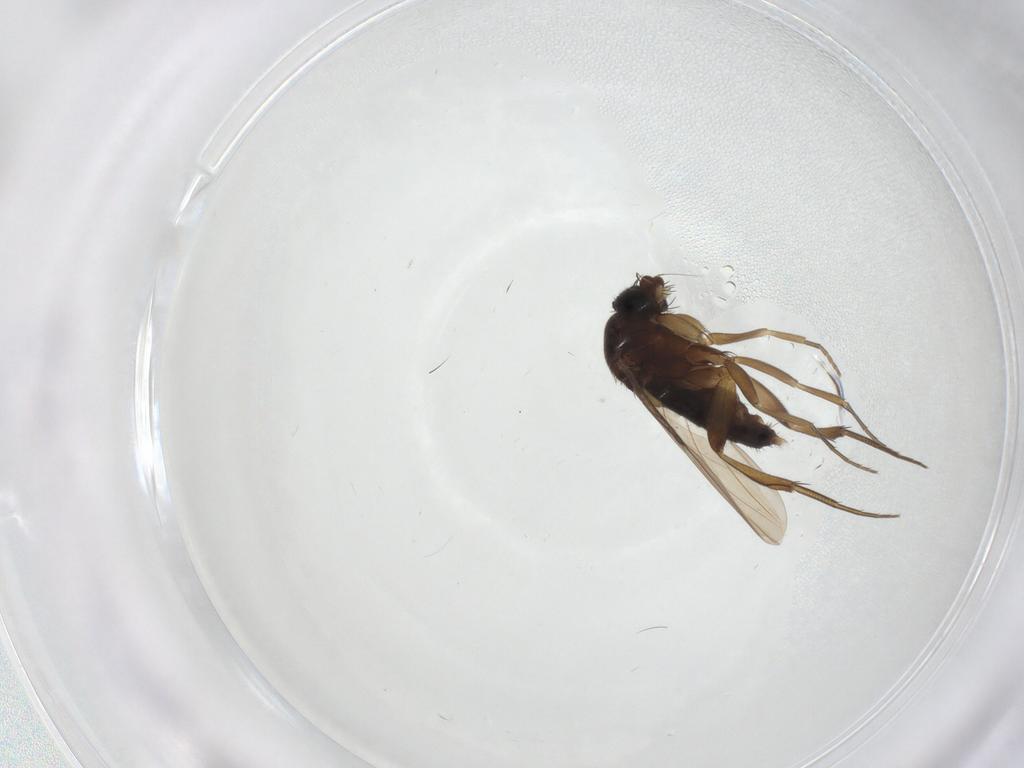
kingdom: Animalia
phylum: Arthropoda
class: Insecta
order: Diptera
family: Phoridae
